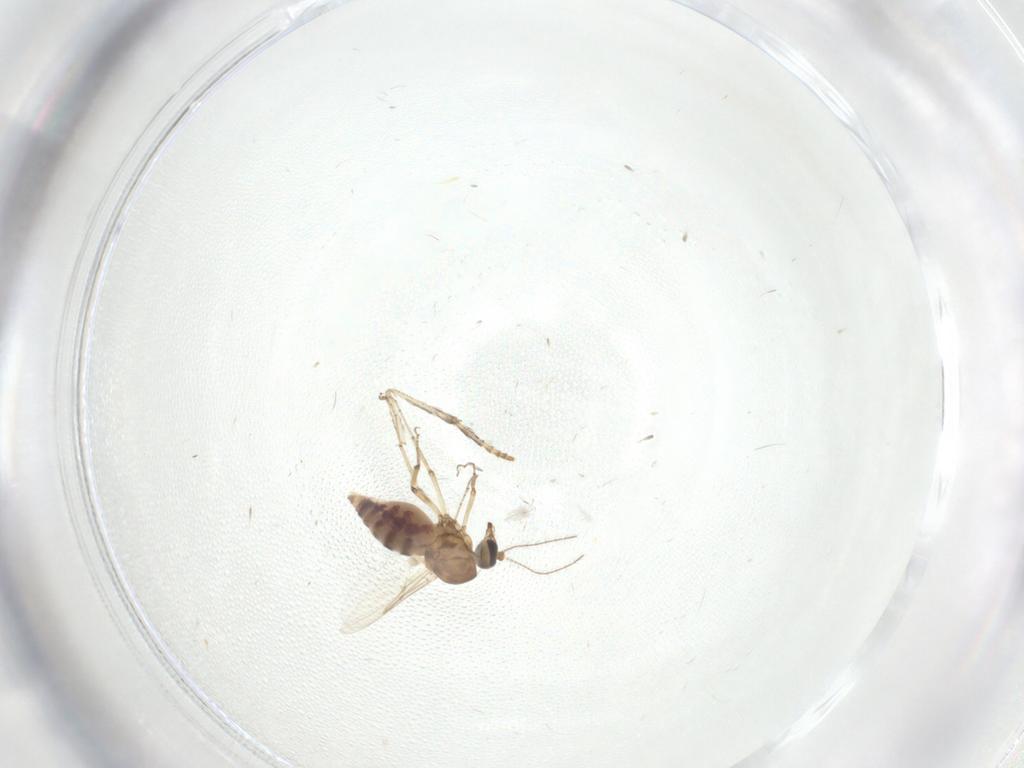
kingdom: Animalia
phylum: Arthropoda
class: Insecta
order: Diptera
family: Ceratopogonidae
